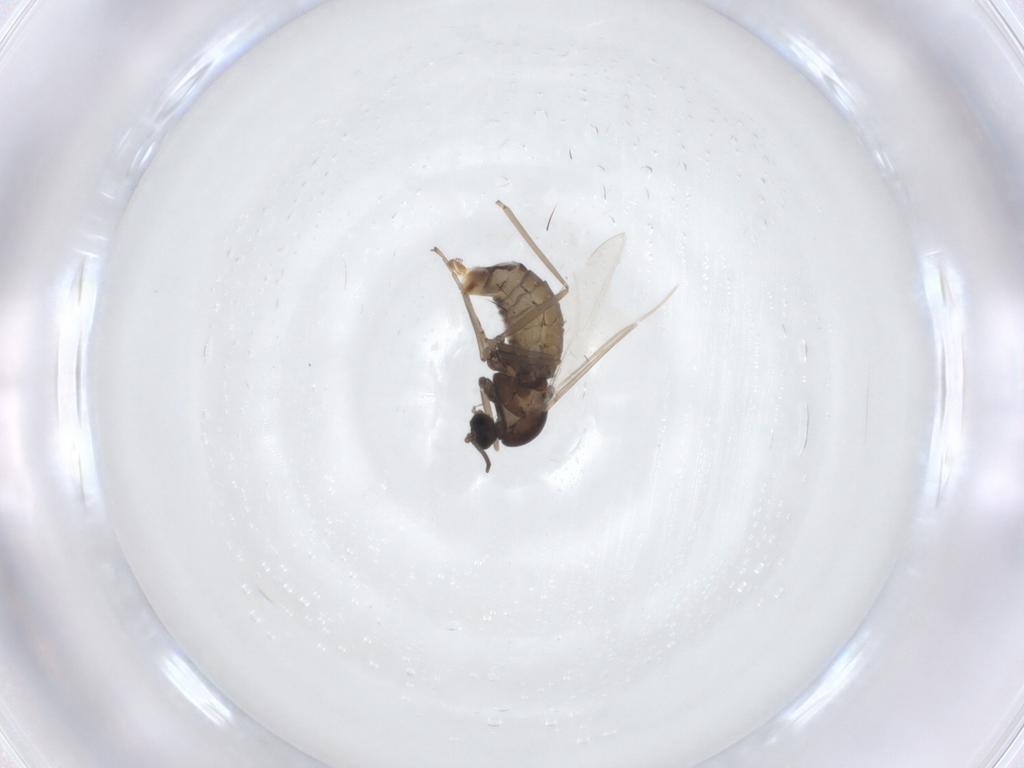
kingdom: Animalia
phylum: Arthropoda
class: Insecta
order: Diptera
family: Cecidomyiidae
